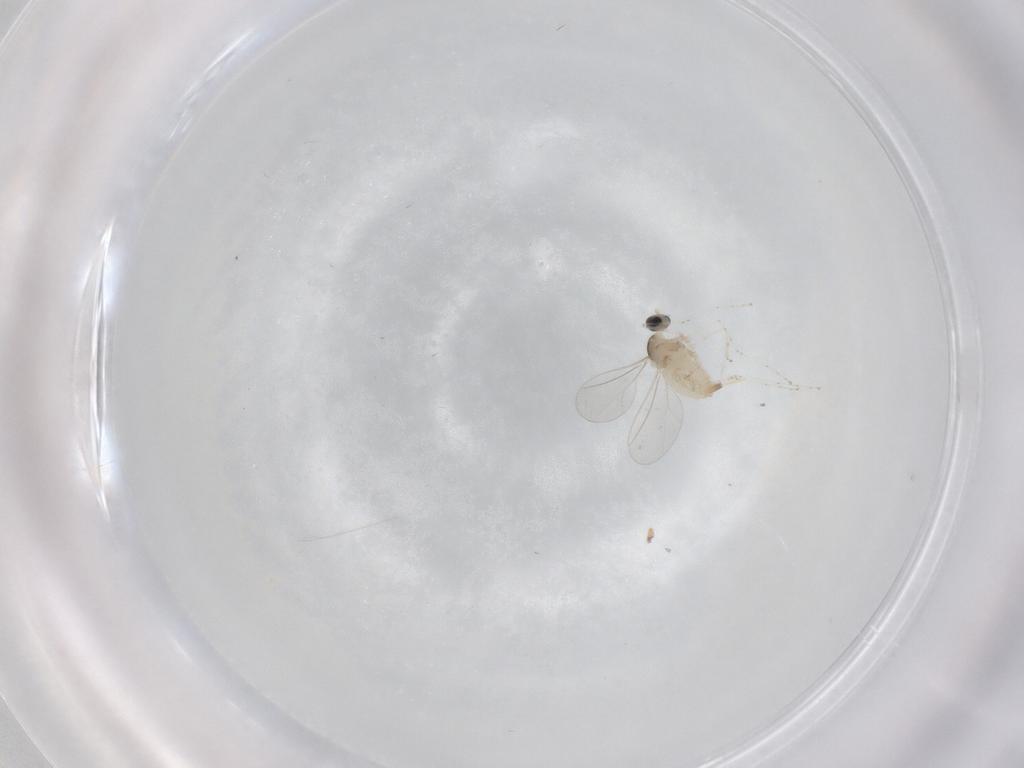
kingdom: Animalia
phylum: Arthropoda
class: Insecta
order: Diptera
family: Cecidomyiidae
